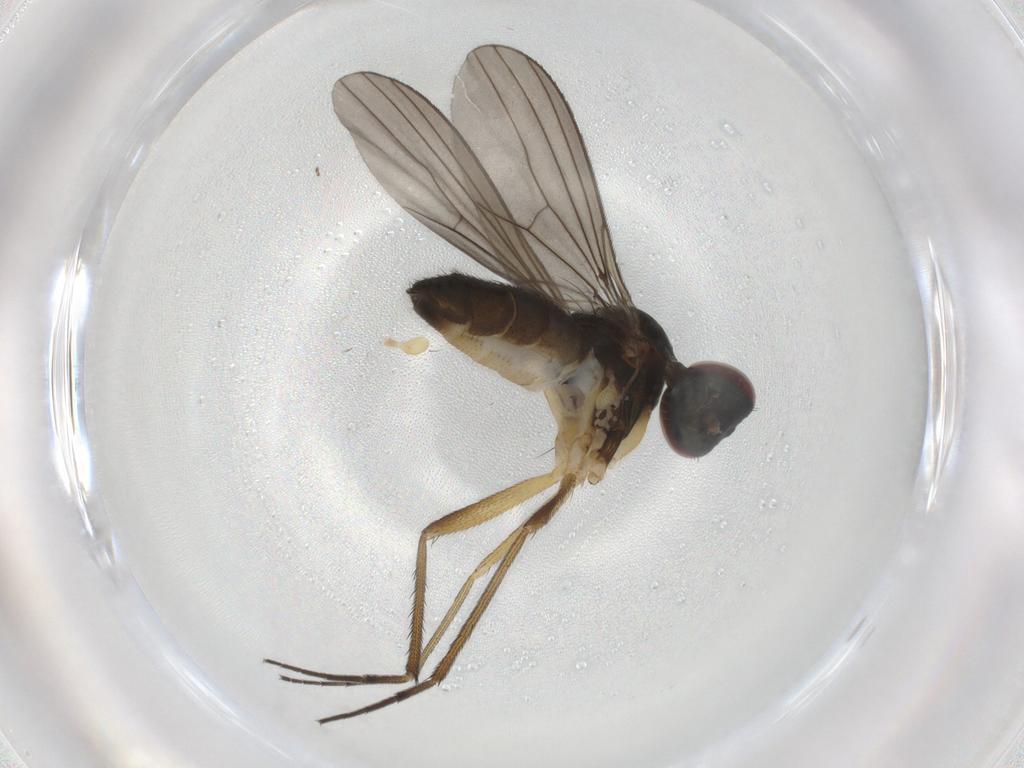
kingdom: Animalia
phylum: Arthropoda
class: Insecta
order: Diptera
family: Dolichopodidae
